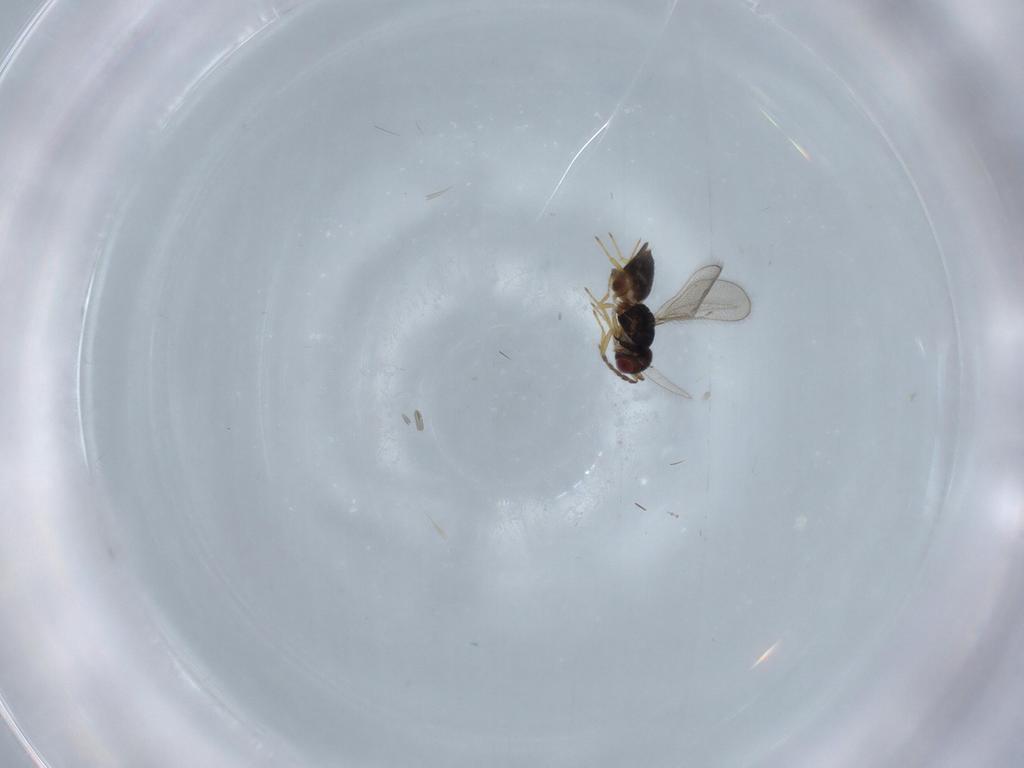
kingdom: Animalia
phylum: Arthropoda
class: Insecta
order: Hymenoptera
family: Eulophidae
